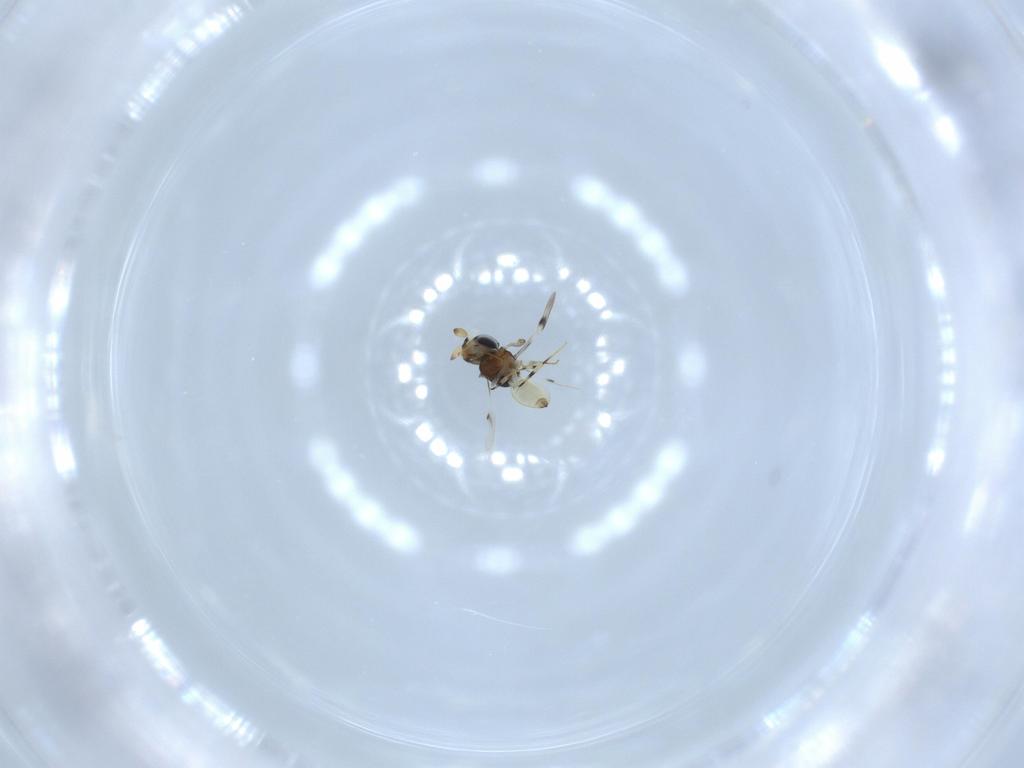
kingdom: Animalia
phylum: Arthropoda
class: Insecta
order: Hymenoptera
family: Scelionidae
